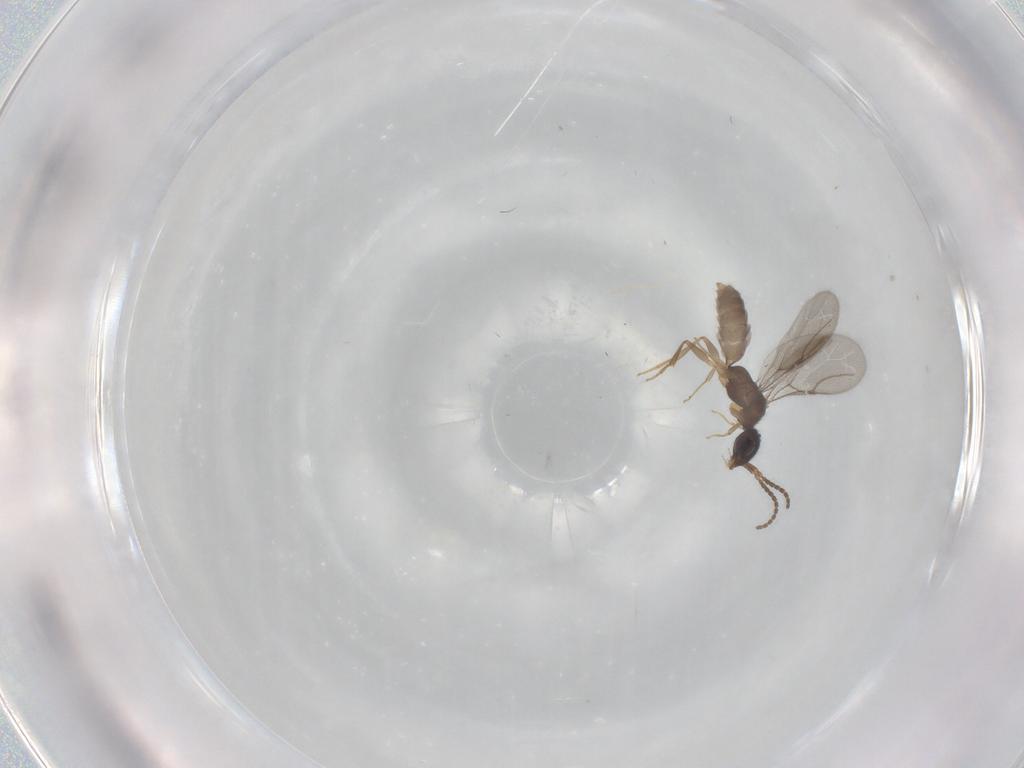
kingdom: Animalia
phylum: Arthropoda
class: Insecta
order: Hymenoptera
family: Bethylidae
